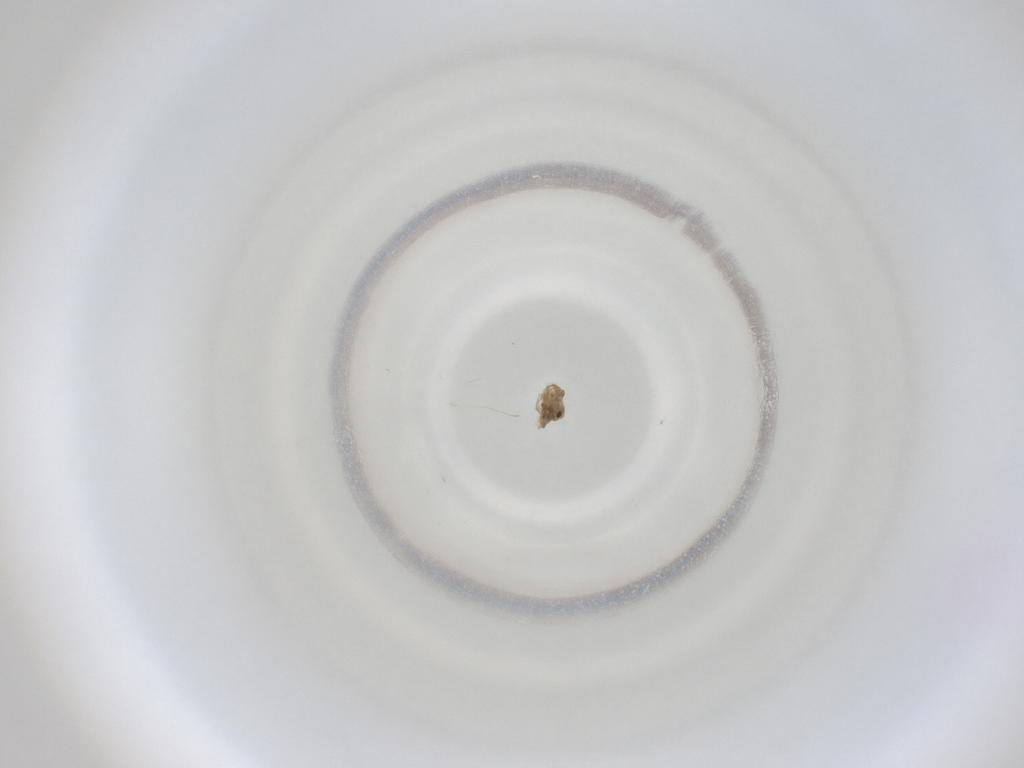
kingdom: Animalia
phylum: Arthropoda
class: Insecta
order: Diptera
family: Cecidomyiidae
